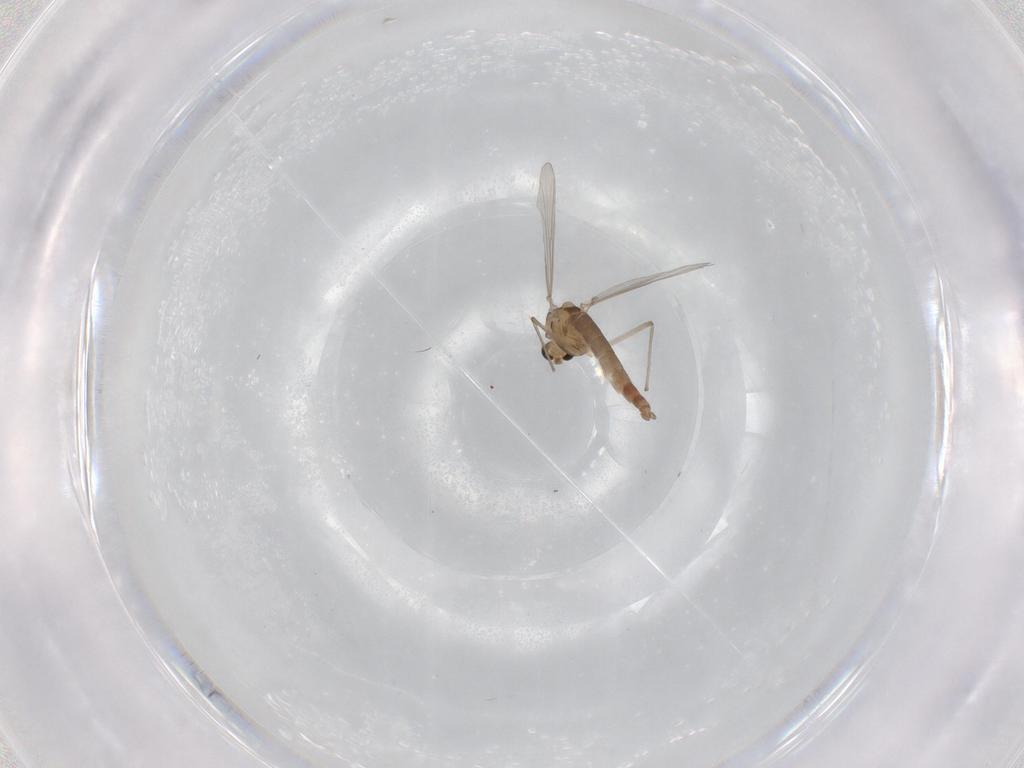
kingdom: Animalia
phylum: Arthropoda
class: Insecta
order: Diptera
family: Chironomidae
